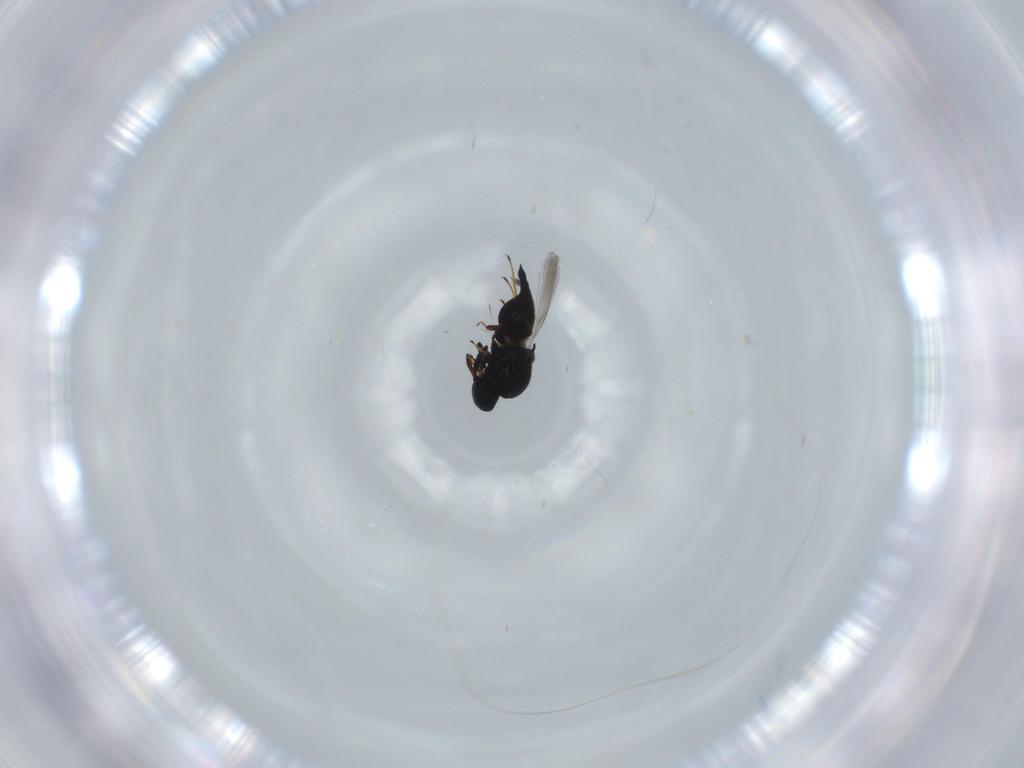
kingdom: Animalia
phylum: Arthropoda
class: Insecta
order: Hymenoptera
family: Platygastridae
